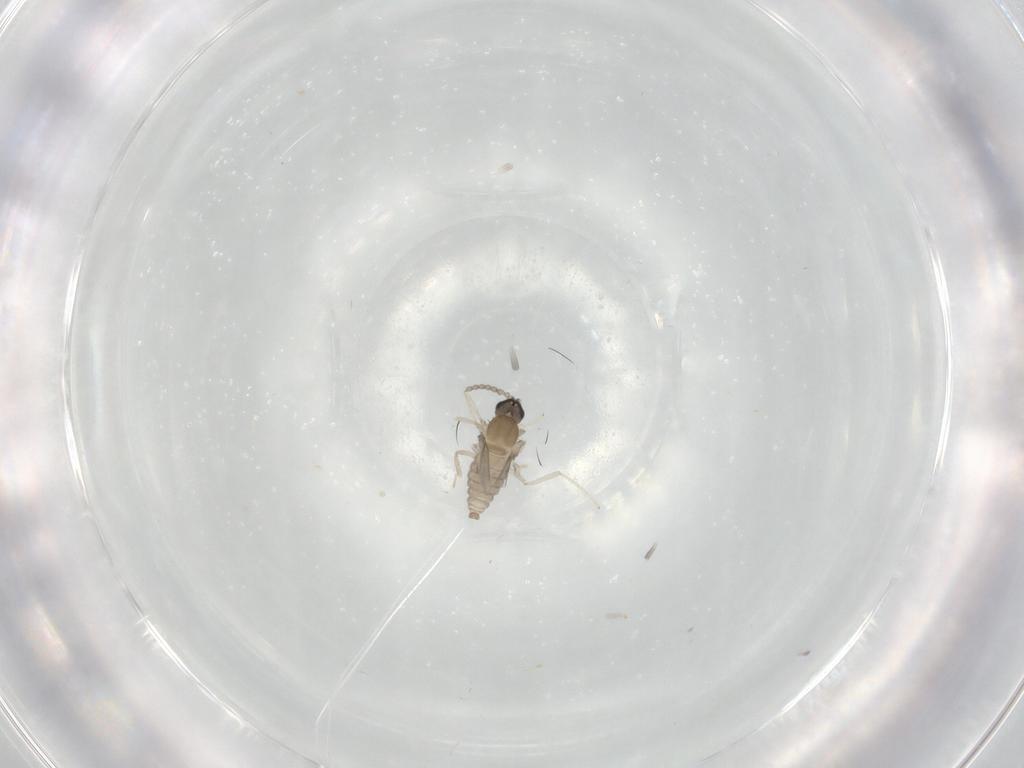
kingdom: Animalia
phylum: Arthropoda
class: Insecta
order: Diptera
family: Cecidomyiidae
